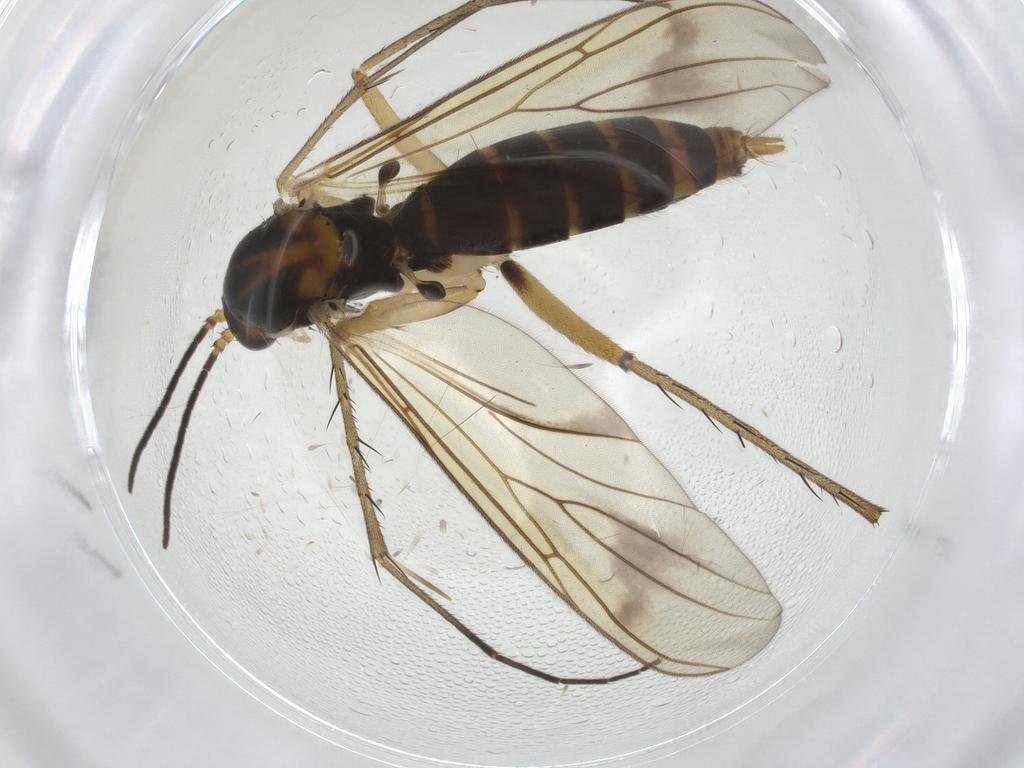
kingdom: Animalia
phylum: Arthropoda
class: Insecta
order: Diptera
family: Mycetophilidae
